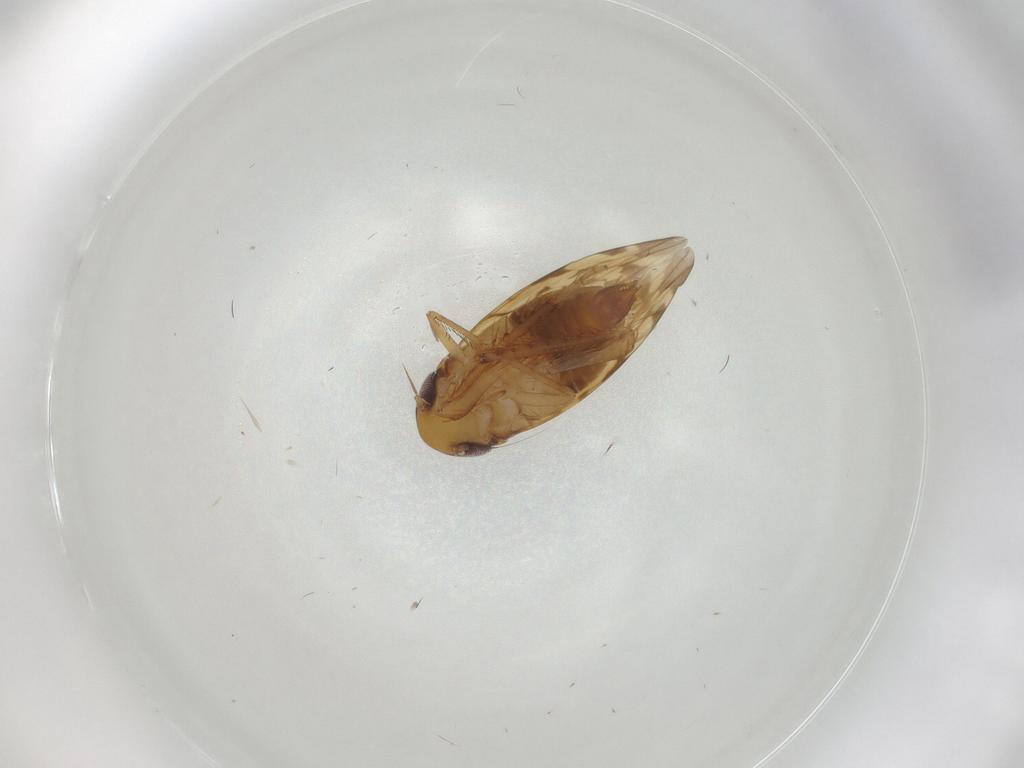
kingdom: Animalia
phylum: Arthropoda
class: Insecta
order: Hemiptera
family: Cicadellidae
